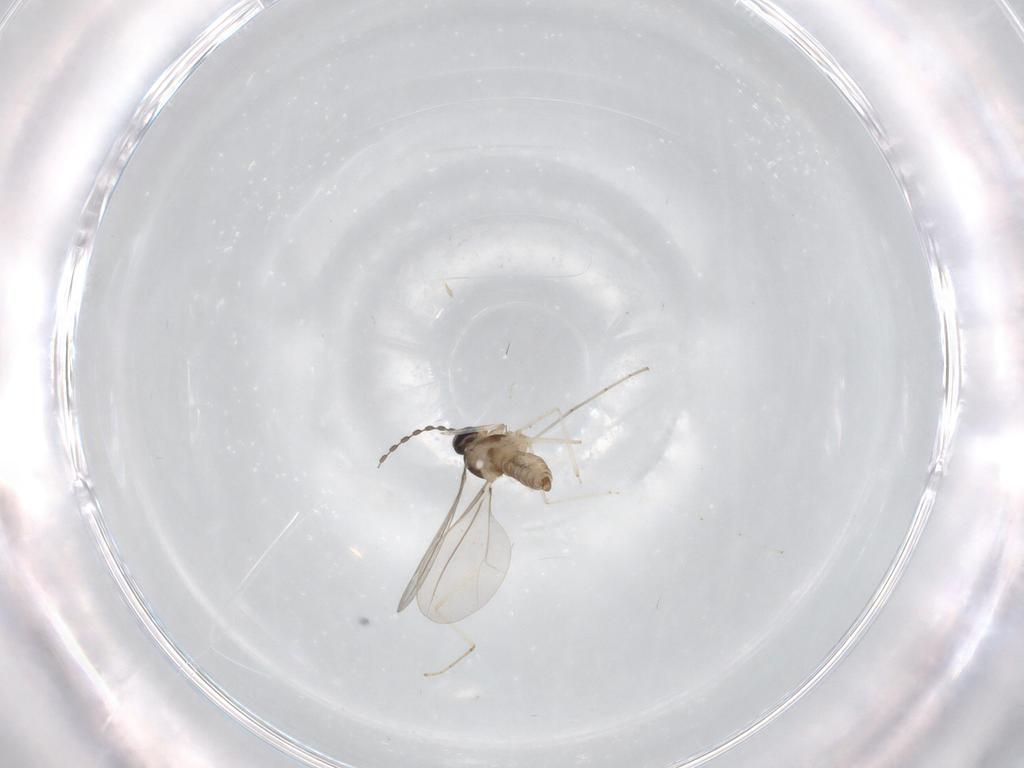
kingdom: Animalia
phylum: Arthropoda
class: Insecta
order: Diptera
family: Cecidomyiidae
